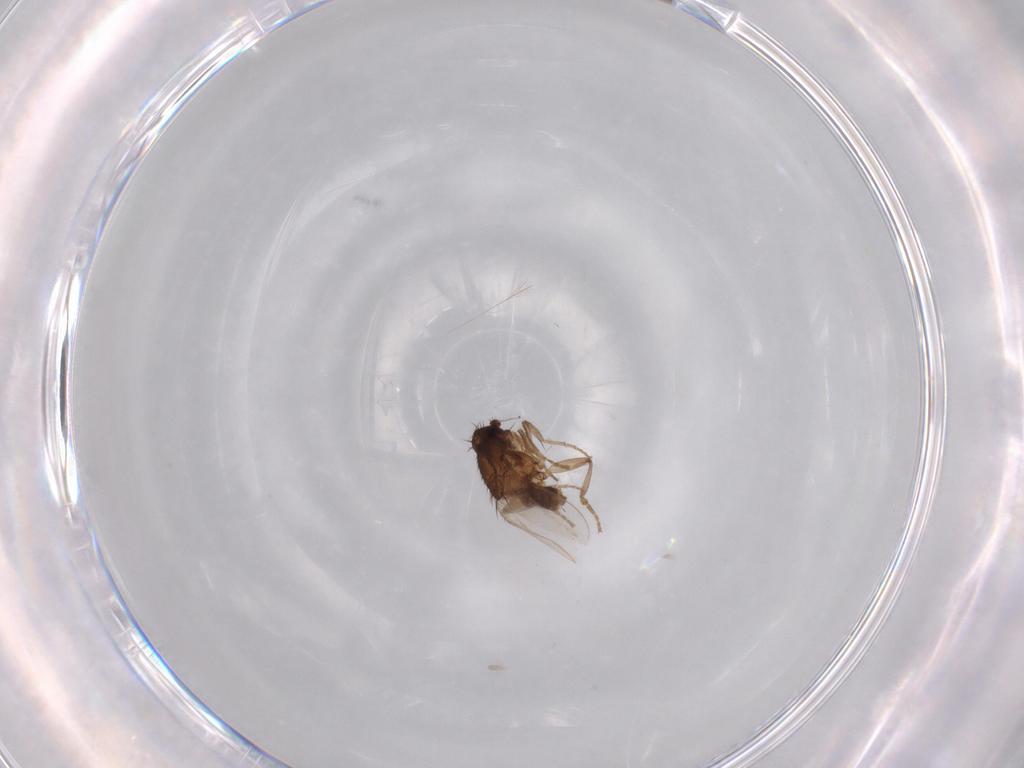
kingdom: Animalia
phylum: Arthropoda
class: Insecta
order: Diptera
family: Sphaeroceridae
